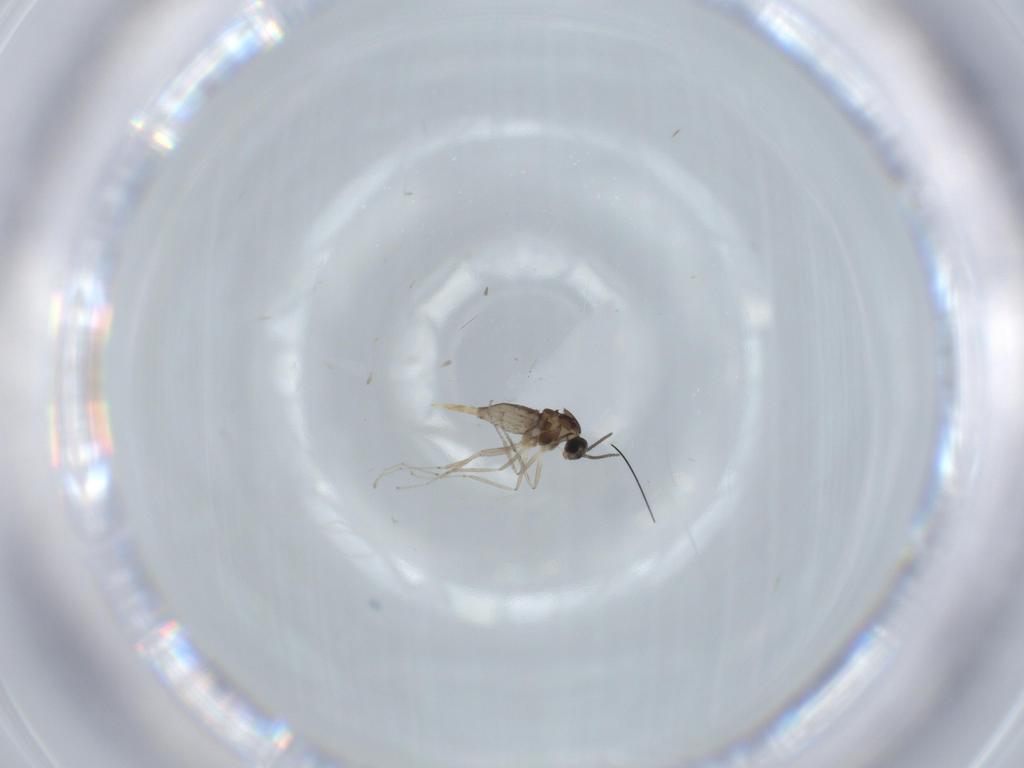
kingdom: Animalia
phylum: Arthropoda
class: Insecta
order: Diptera
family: Cecidomyiidae
